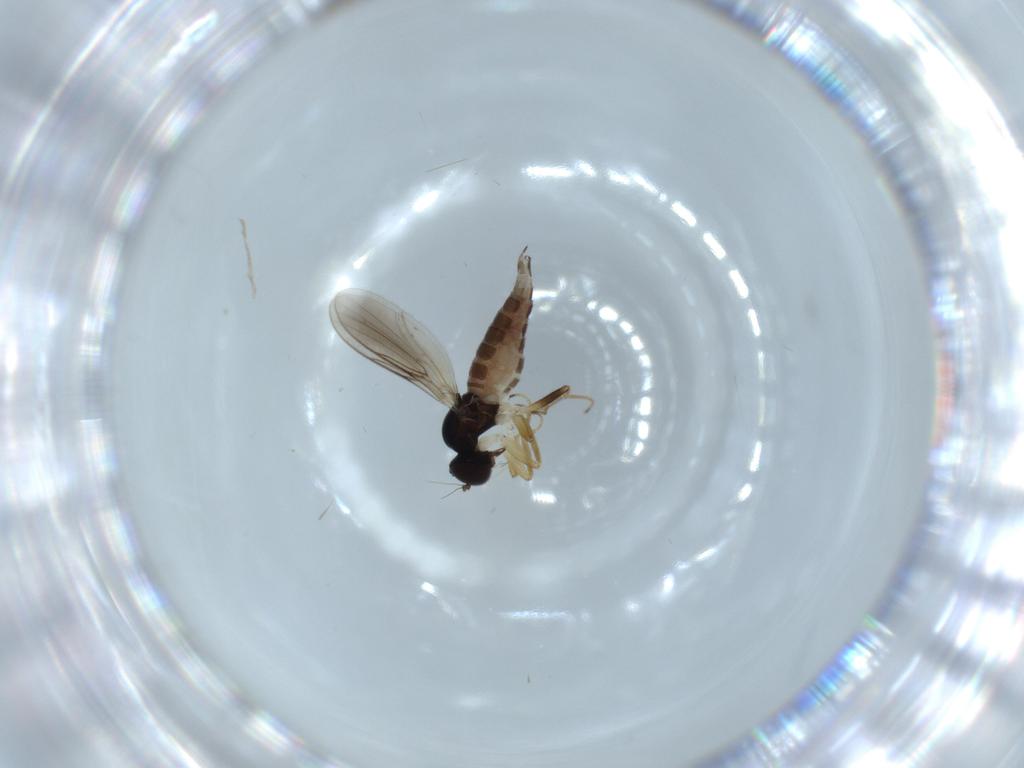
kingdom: Animalia
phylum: Arthropoda
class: Insecta
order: Diptera
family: Hybotidae
